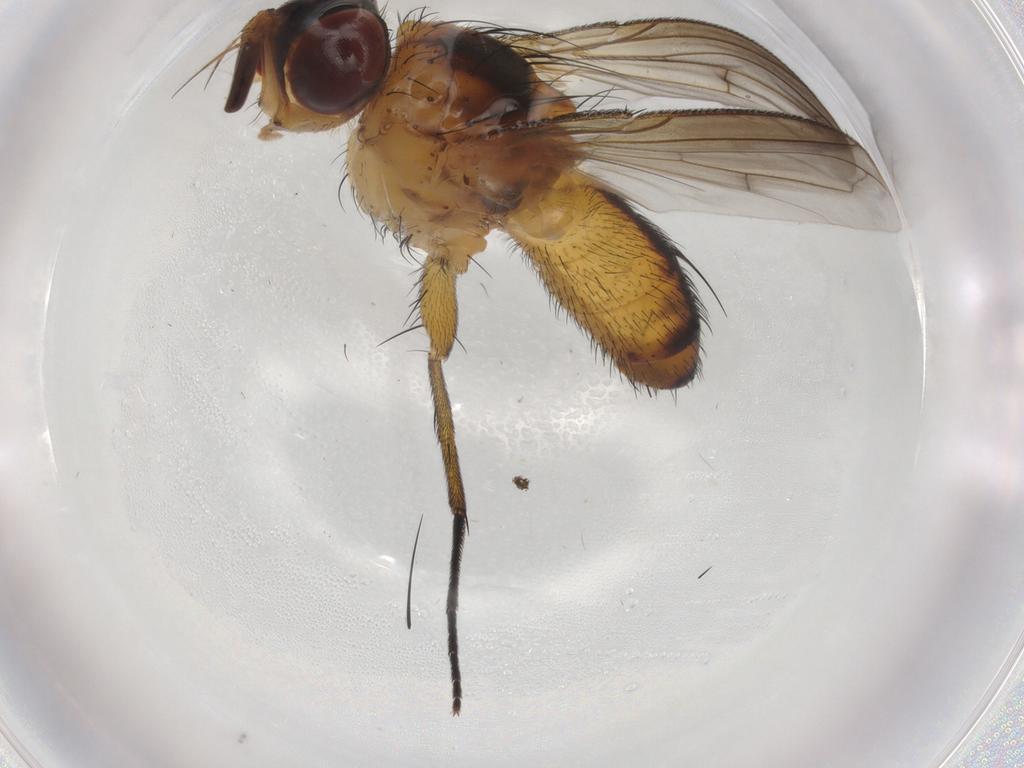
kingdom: Animalia
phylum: Arthropoda
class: Insecta
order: Diptera
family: Tachinidae
